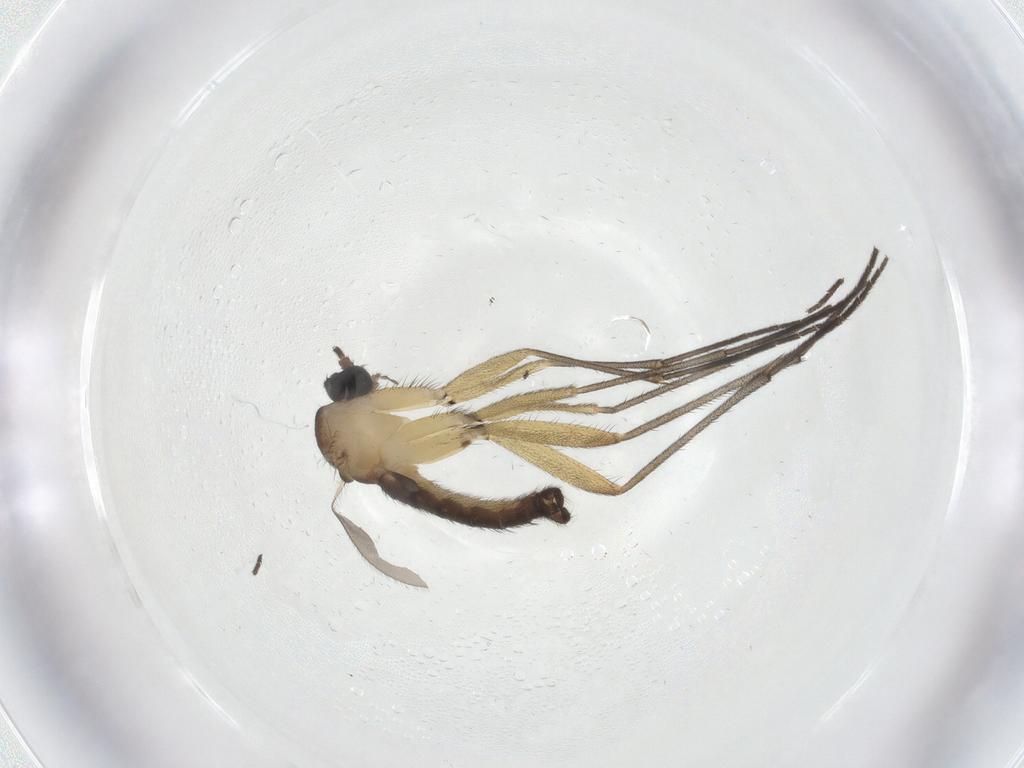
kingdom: Animalia
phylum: Arthropoda
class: Insecta
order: Diptera
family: Sciaridae
